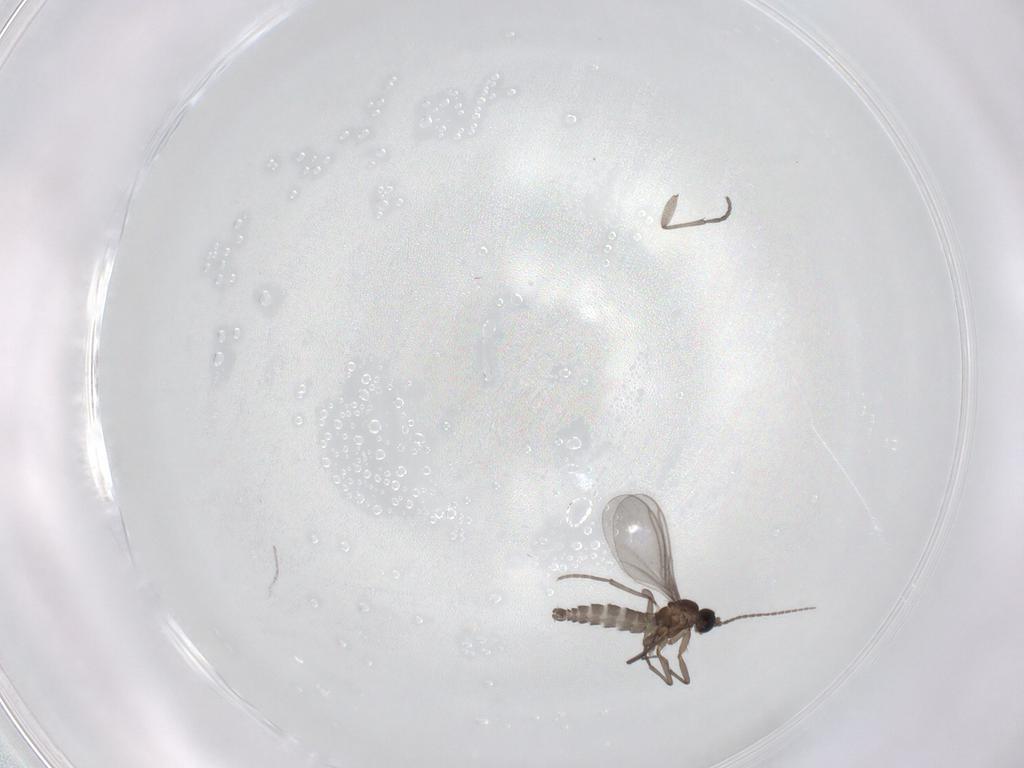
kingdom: Animalia
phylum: Arthropoda
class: Insecta
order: Diptera
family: Sciaridae
